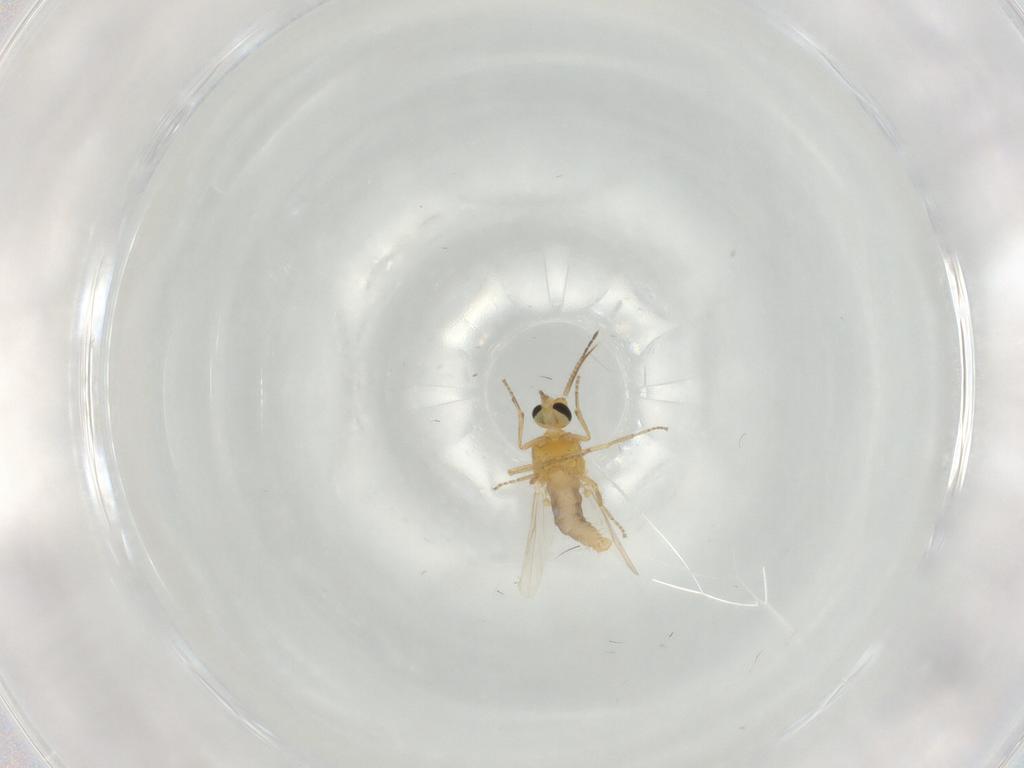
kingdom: Animalia
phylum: Arthropoda
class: Insecta
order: Diptera
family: Ceratopogonidae
